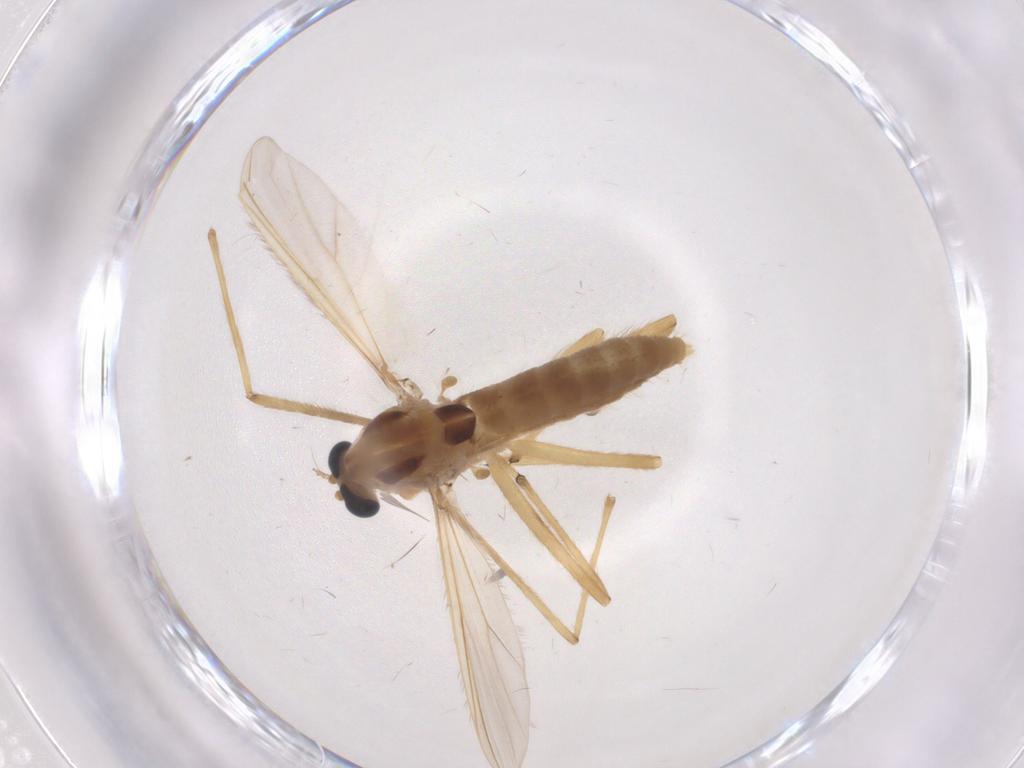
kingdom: Animalia
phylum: Arthropoda
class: Insecta
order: Diptera
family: Chironomidae
